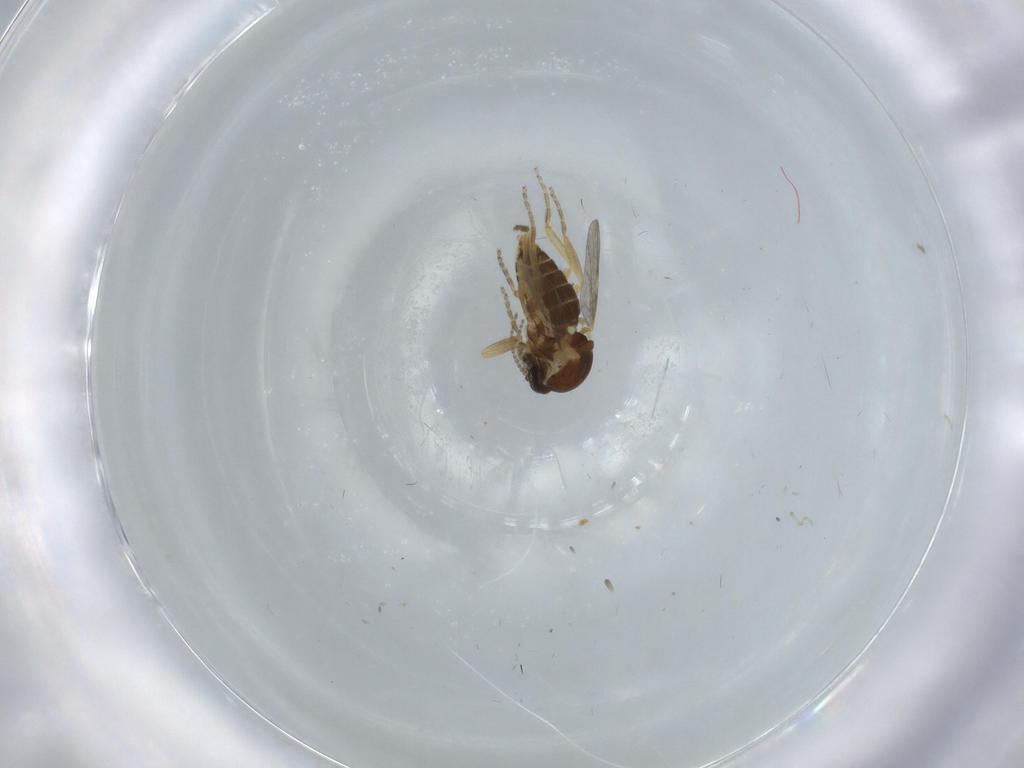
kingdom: Animalia
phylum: Arthropoda
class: Insecta
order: Diptera
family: Ceratopogonidae
